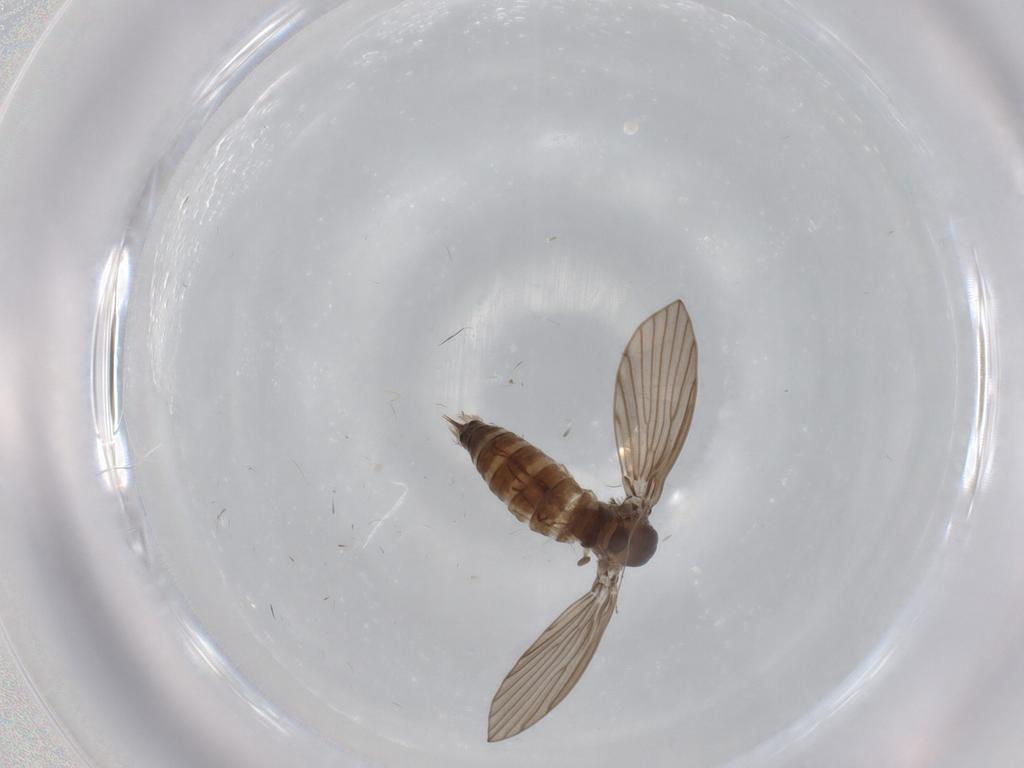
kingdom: Animalia
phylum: Arthropoda
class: Insecta
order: Diptera
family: Psychodidae
